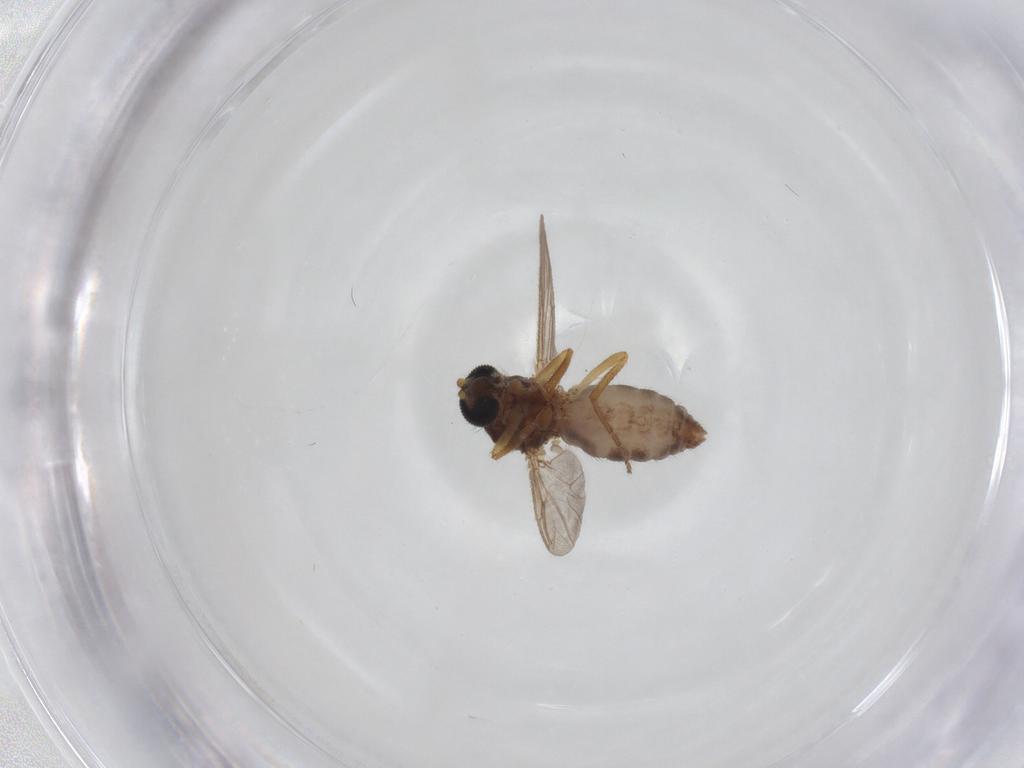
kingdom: Animalia
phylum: Arthropoda
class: Insecta
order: Diptera
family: Ceratopogonidae
